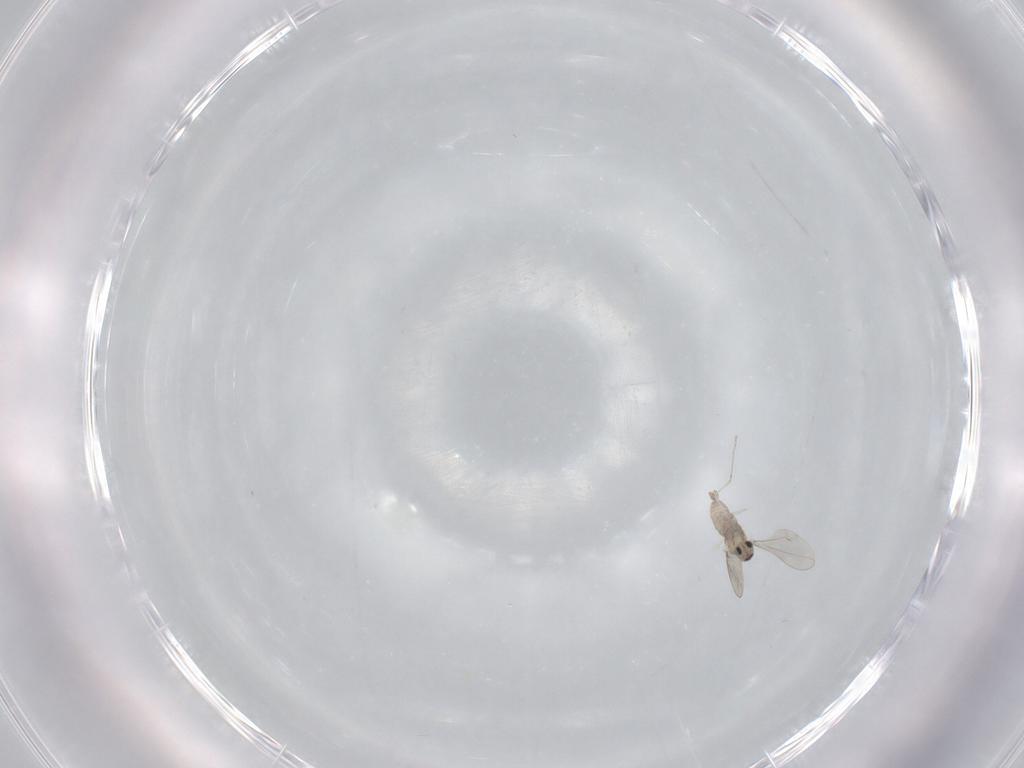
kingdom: Animalia
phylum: Arthropoda
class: Insecta
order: Diptera
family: Cecidomyiidae
